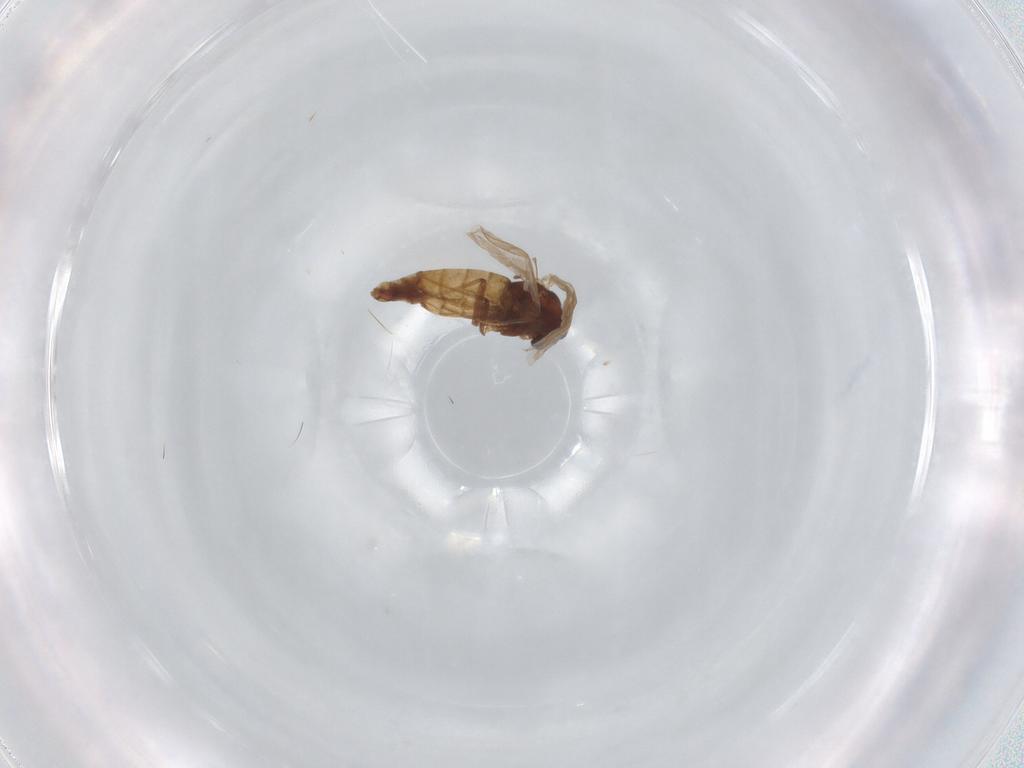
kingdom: Animalia
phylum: Arthropoda
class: Insecta
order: Diptera
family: Chironomidae
